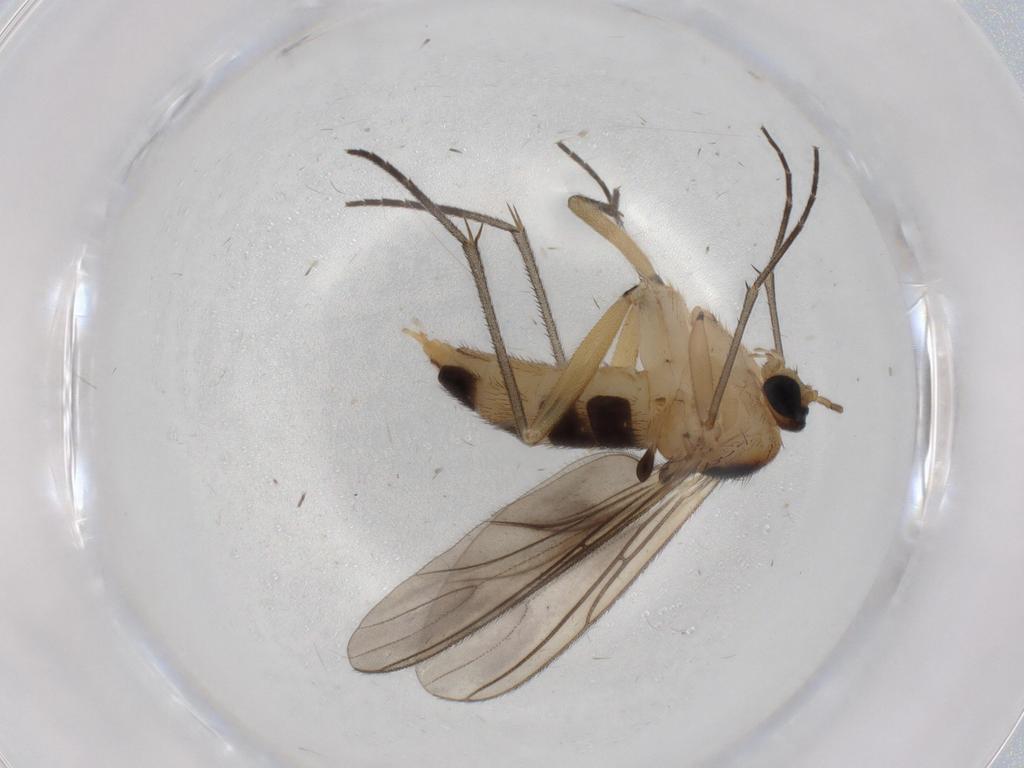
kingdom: Animalia
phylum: Arthropoda
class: Insecta
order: Diptera
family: Sciaridae
